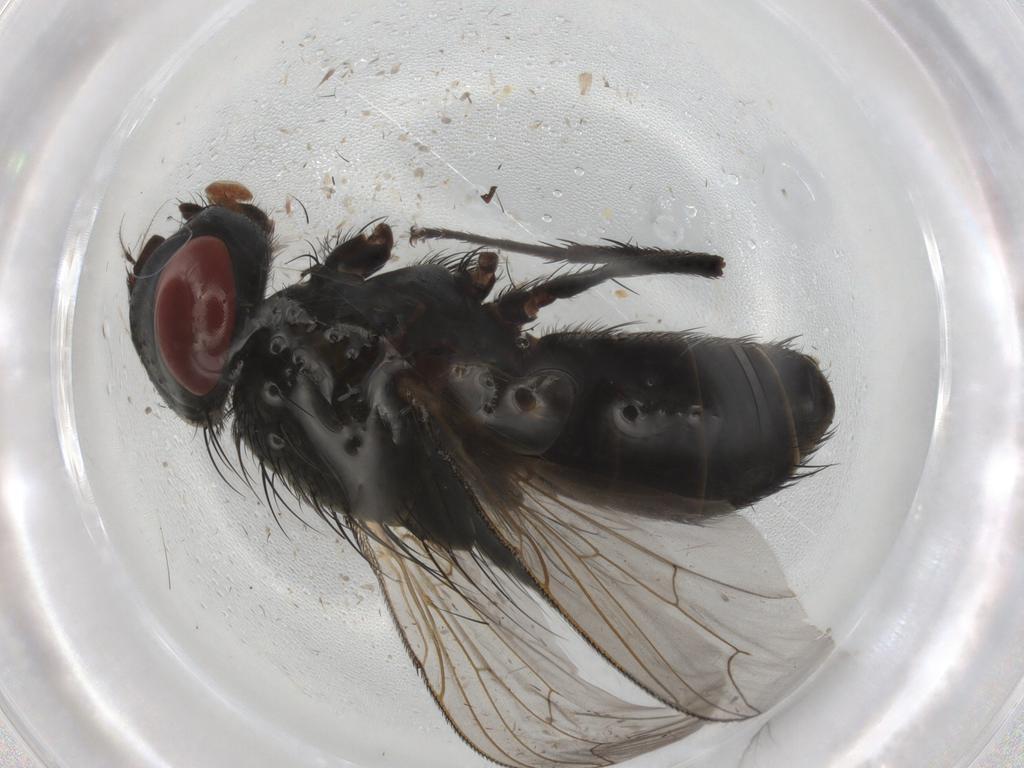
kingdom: Animalia
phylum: Arthropoda
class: Insecta
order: Diptera
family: Sarcophagidae
